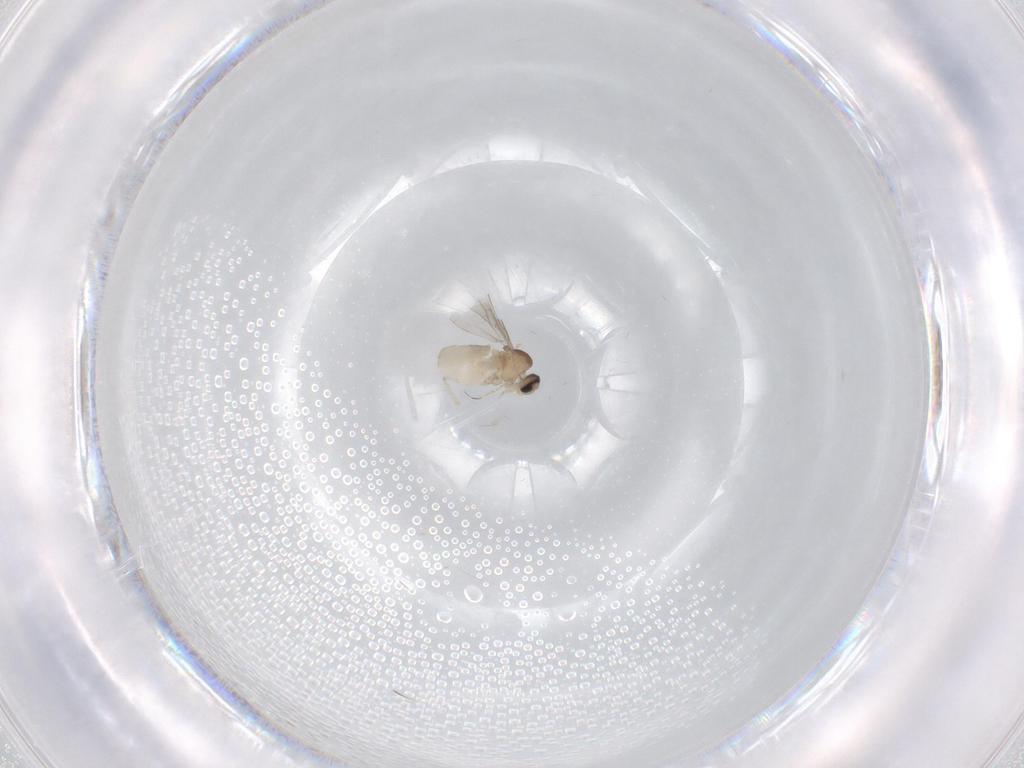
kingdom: Animalia
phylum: Arthropoda
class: Insecta
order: Diptera
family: Cecidomyiidae
